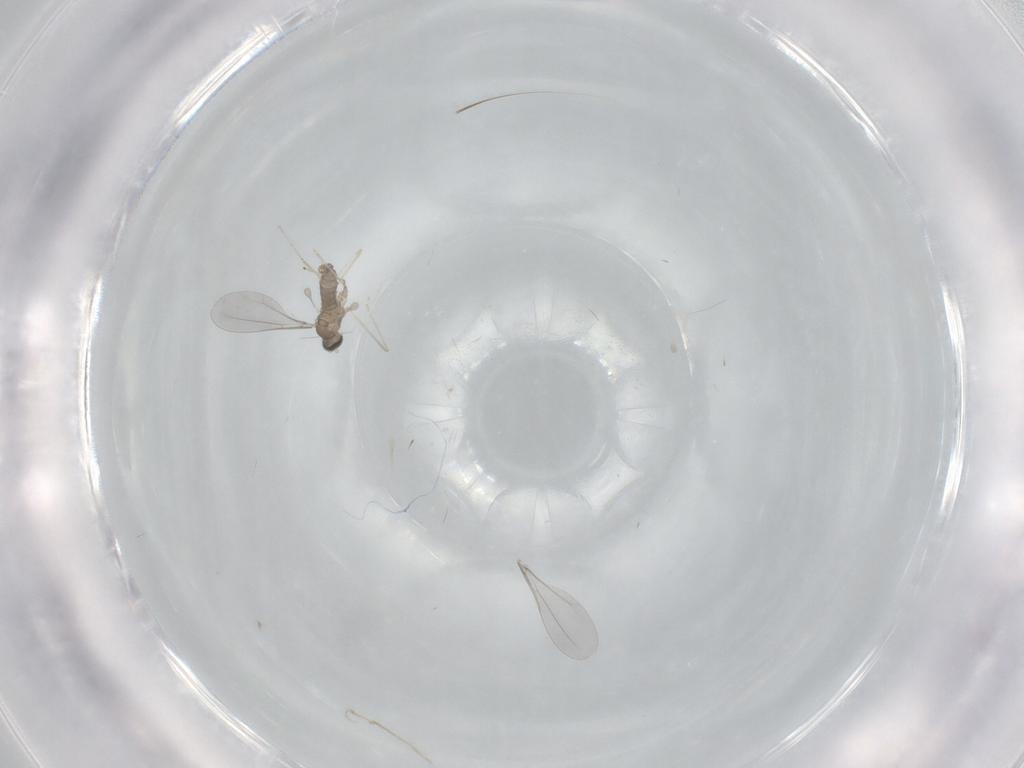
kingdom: Animalia
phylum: Arthropoda
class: Insecta
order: Diptera
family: Cecidomyiidae
